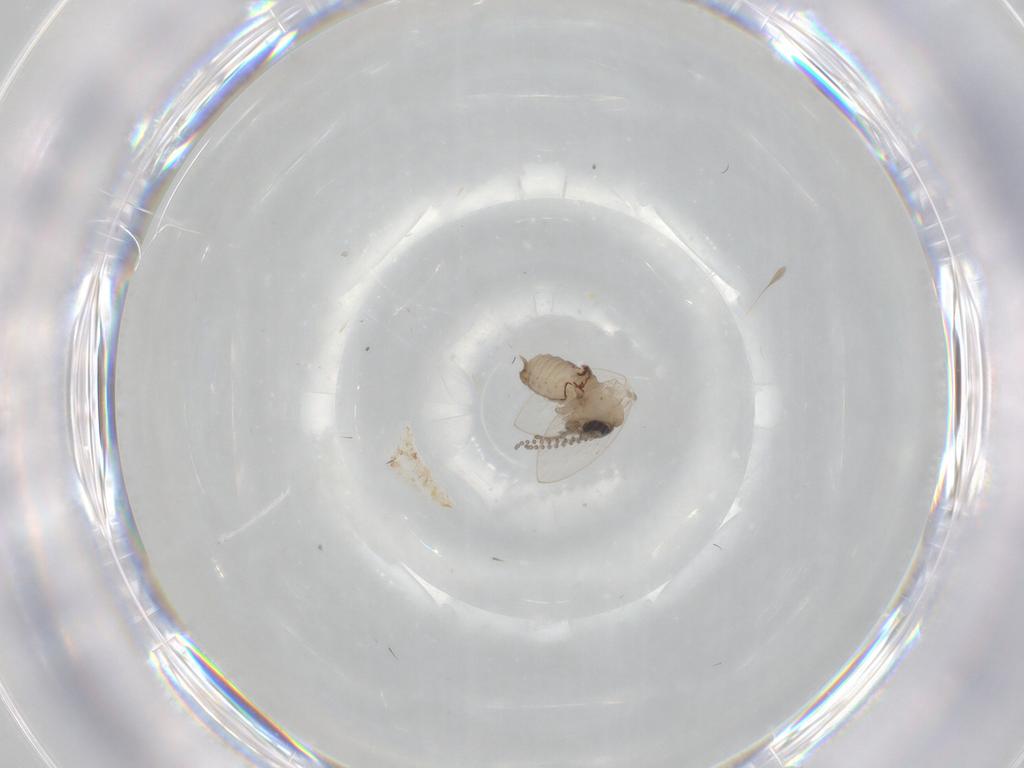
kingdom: Animalia
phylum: Arthropoda
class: Insecta
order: Diptera
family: Psychodidae
